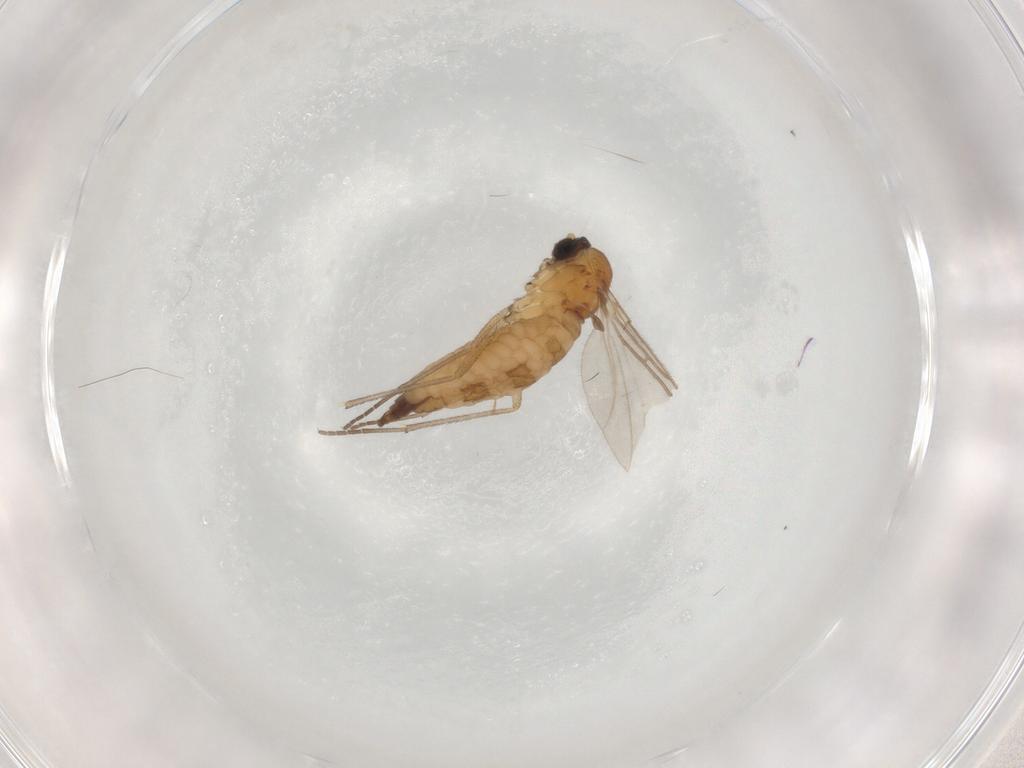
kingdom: Animalia
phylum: Arthropoda
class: Insecta
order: Diptera
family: Sciaridae
